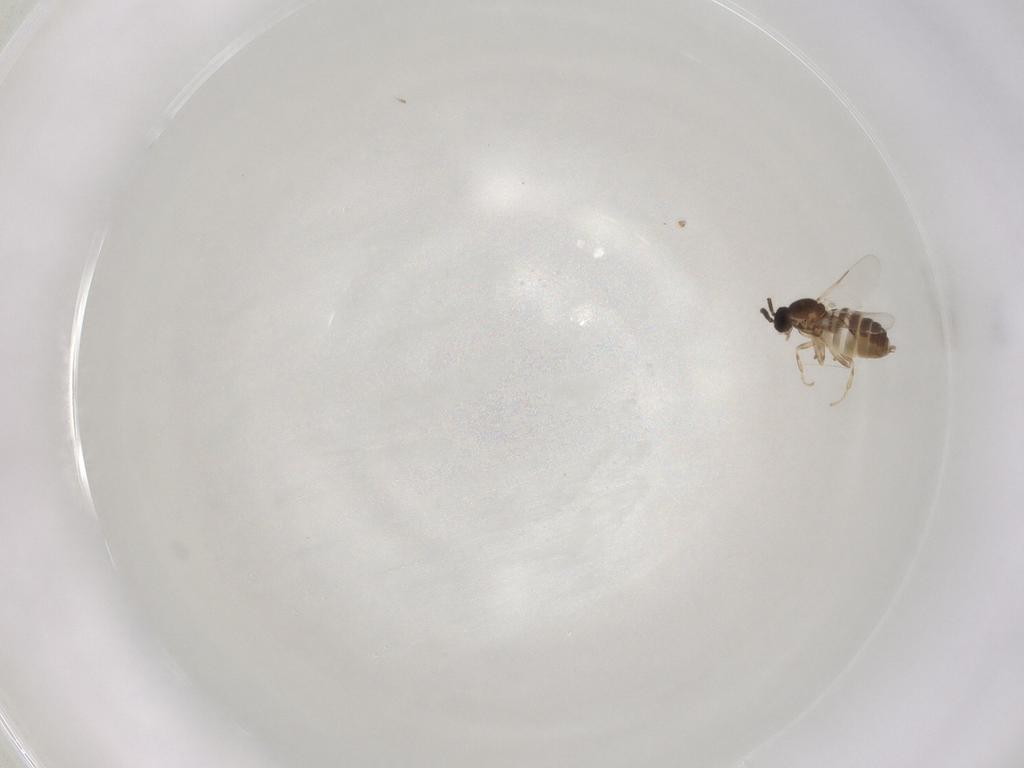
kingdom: Animalia
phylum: Arthropoda
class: Insecta
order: Diptera
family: Scatopsidae
